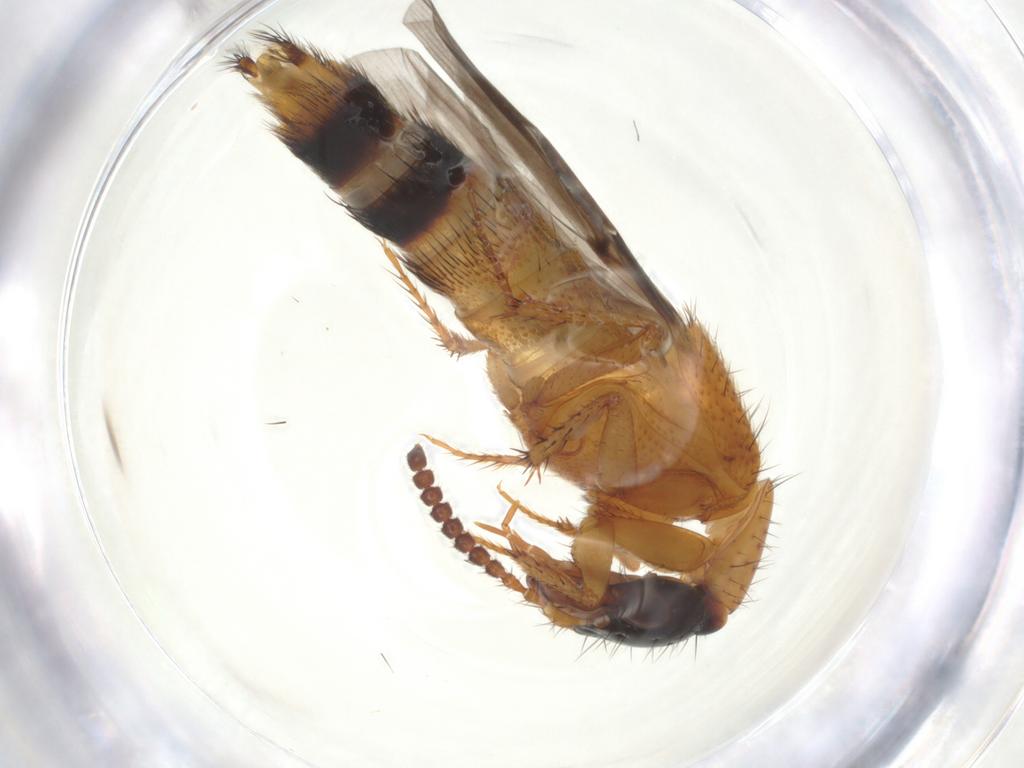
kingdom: Animalia
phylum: Arthropoda
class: Insecta
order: Coleoptera
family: Staphylinidae
